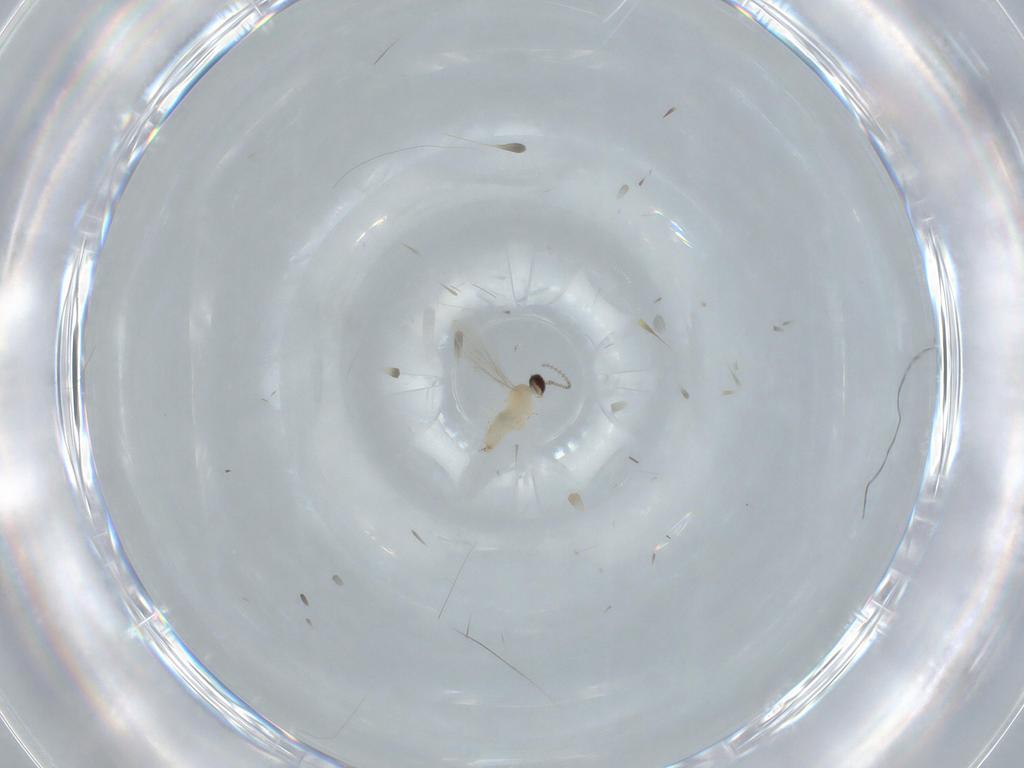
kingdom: Animalia
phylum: Arthropoda
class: Insecta
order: Diptera
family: Cecidomyiidae
